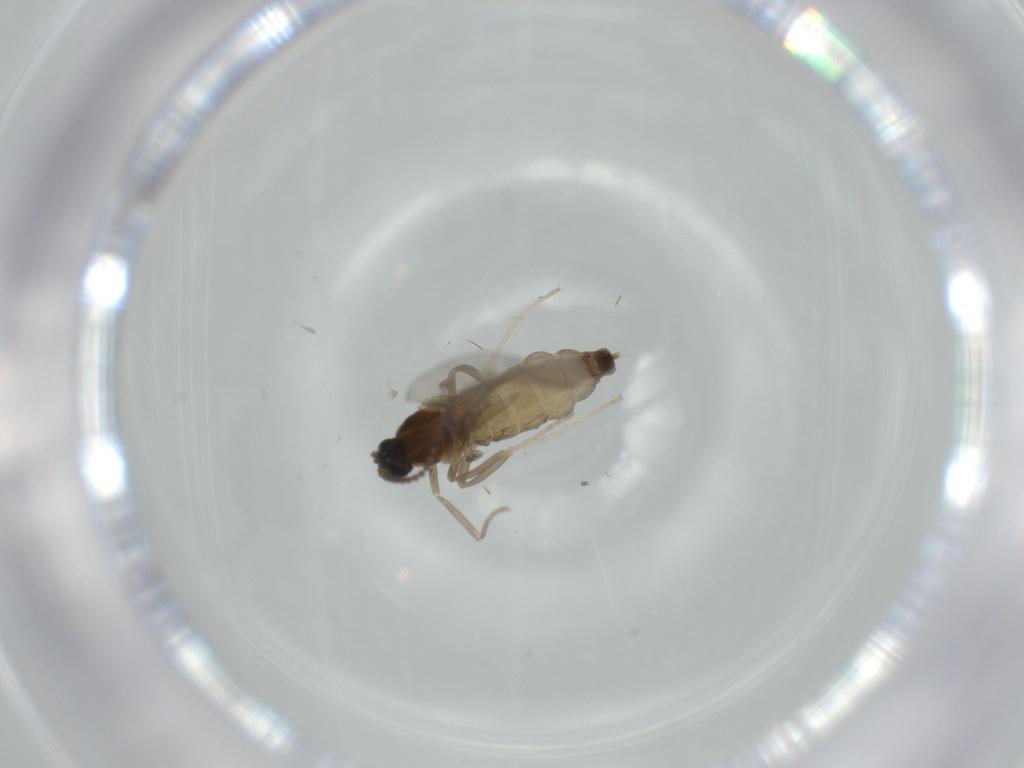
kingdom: Animalia
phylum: Arthropoda
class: Insecta
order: Diptera
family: Cecidomyiidae
